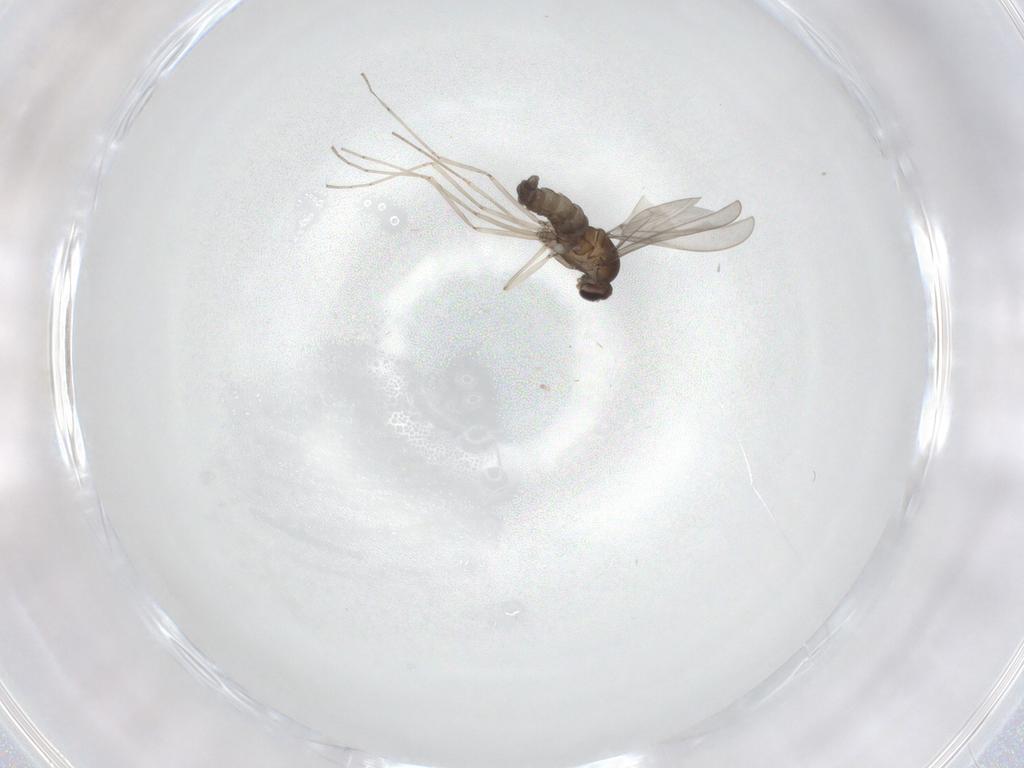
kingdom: Animalia
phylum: Arthropoda
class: Insecta
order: Diptera
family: Cecidomyiidae
